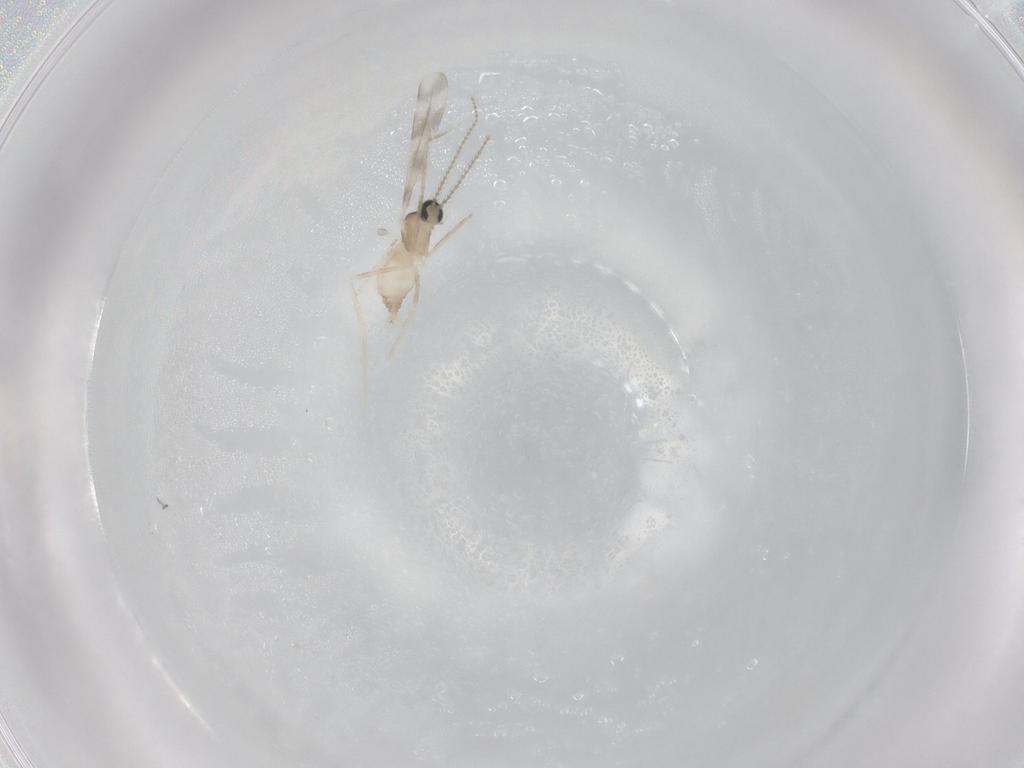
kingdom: Animalia
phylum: Arthropoda
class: Insecta
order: Diptera
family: Cecidomyiidae
